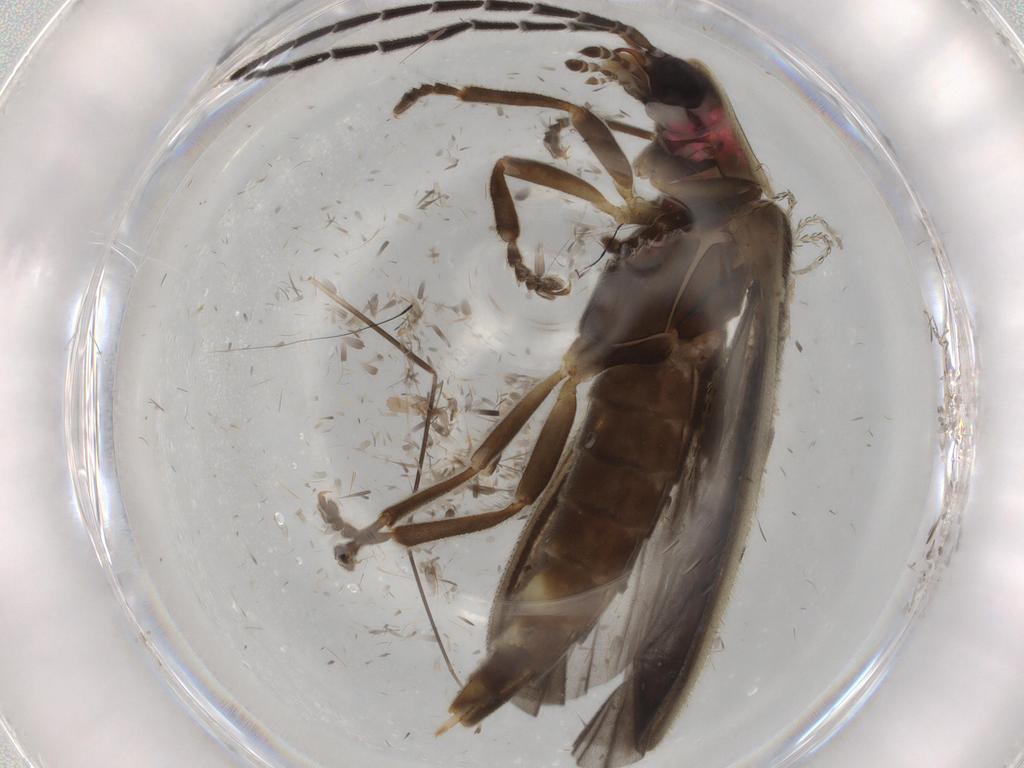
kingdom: Animalia
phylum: Arthropoda
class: Insecta
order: Coleoptera
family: Lampyridae
